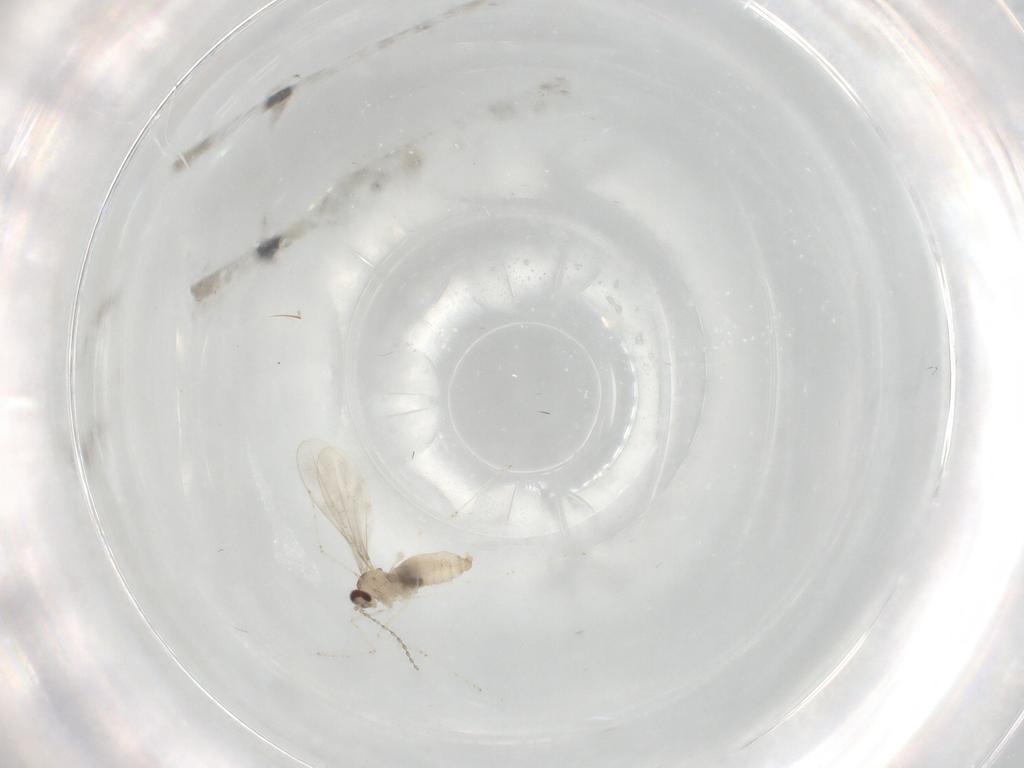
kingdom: Animalia
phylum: Arthropoda
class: Insecta
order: Diptera
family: Cecidomyiidae
